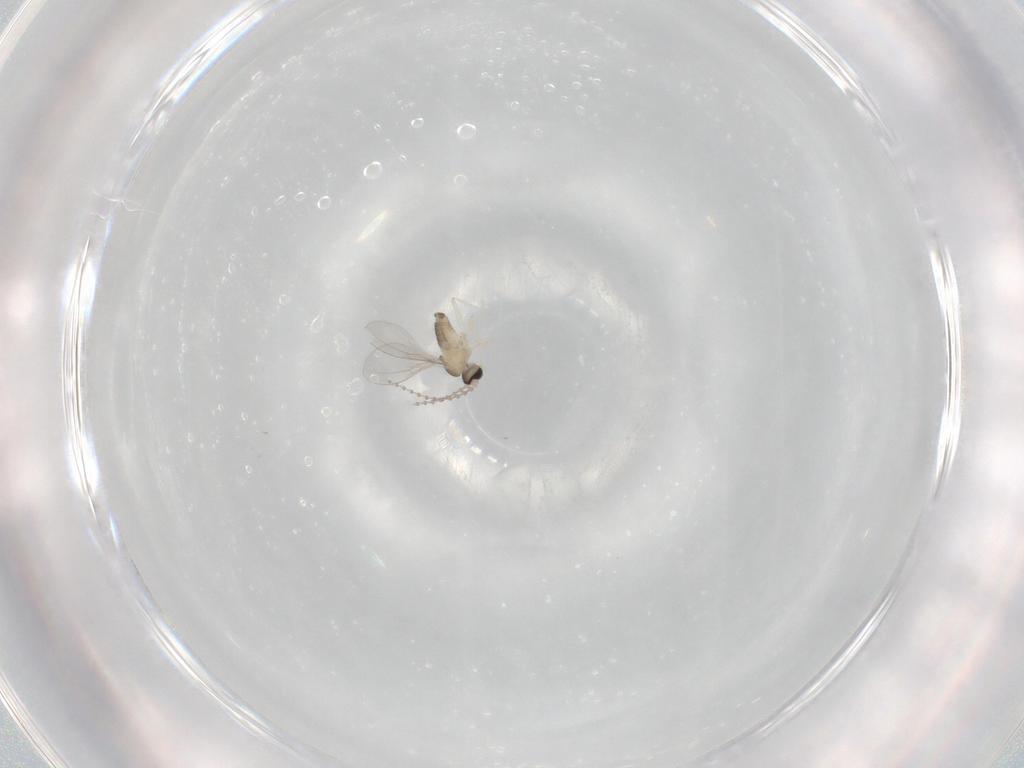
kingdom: Animalia
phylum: Arthropoda
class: Insecta
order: Diptera
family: Cecidomyiidae
